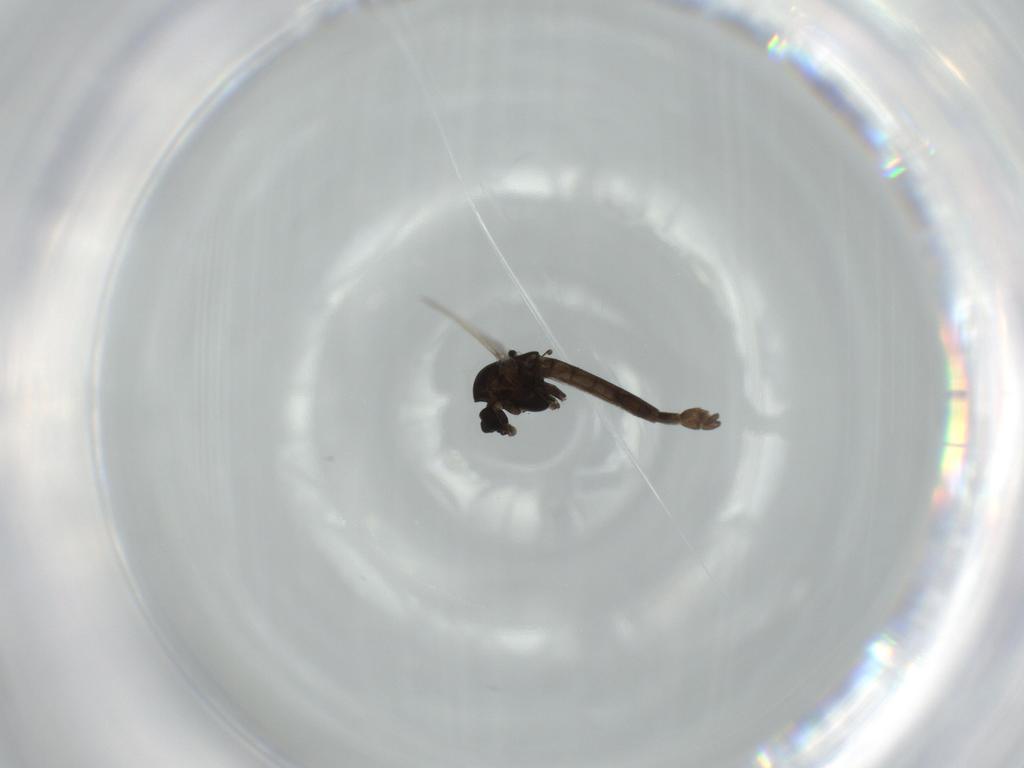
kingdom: Animalia
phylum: Arthropoda
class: Insecta
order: Diptera
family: Chironomidae
